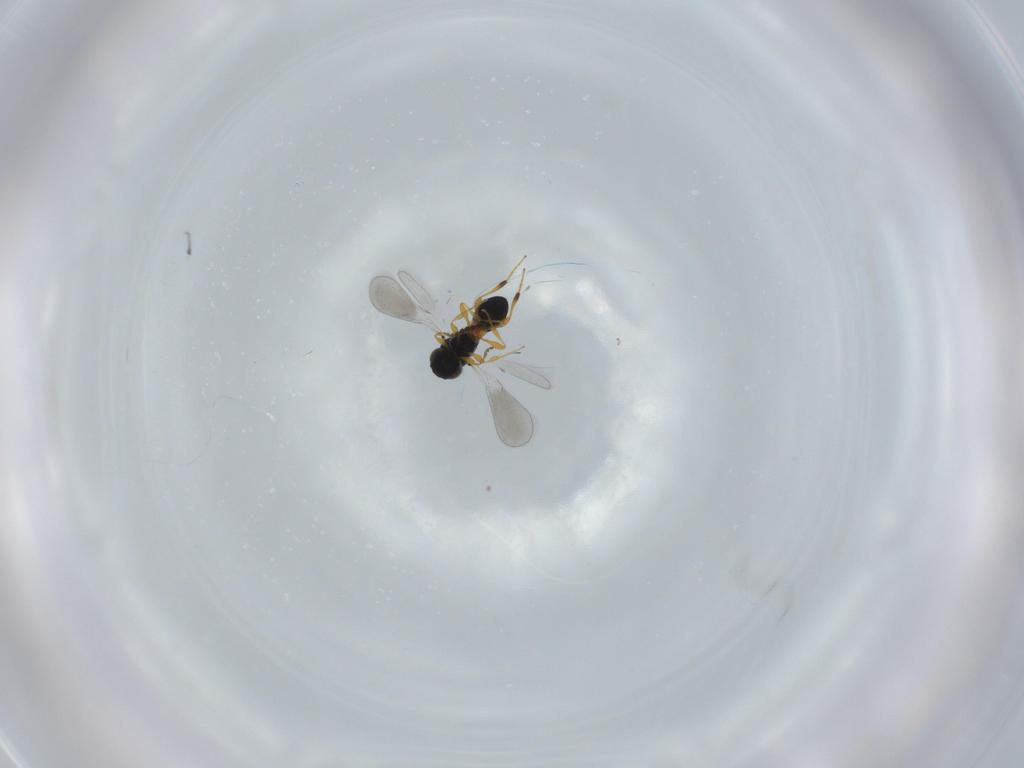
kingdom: Animalia
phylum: Arthropoda
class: Insecta
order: Hymenoptera
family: Platygastridae
